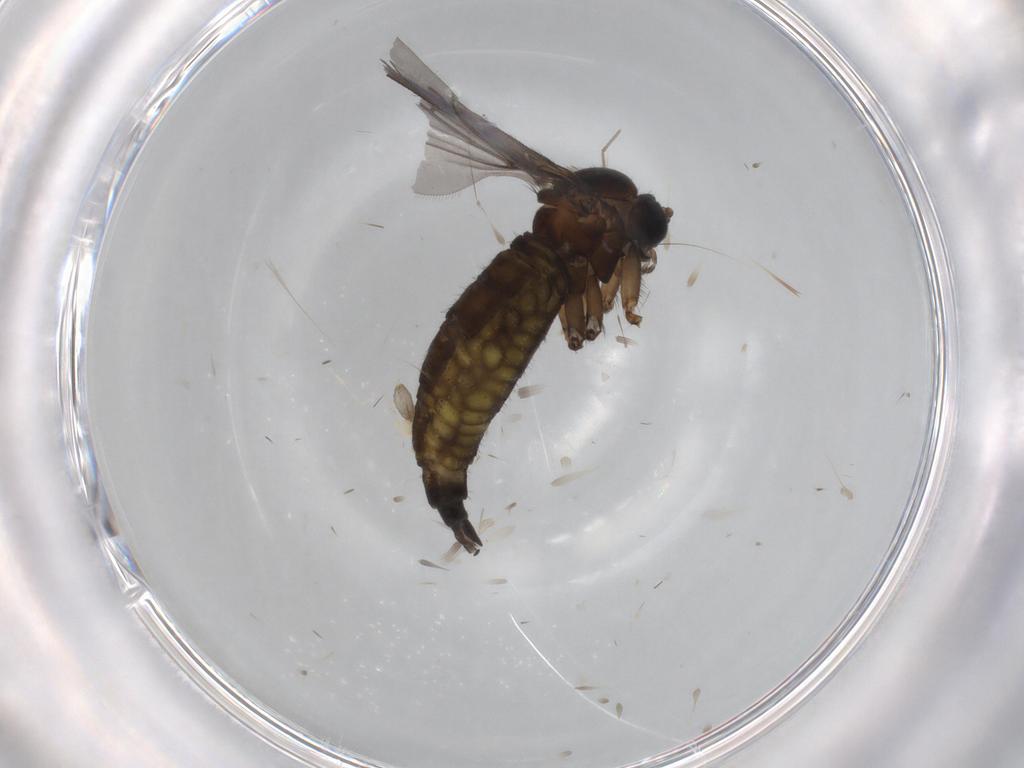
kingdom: Animalia
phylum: Arthropoda
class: Insecta
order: Diptera
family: Sciaridae
